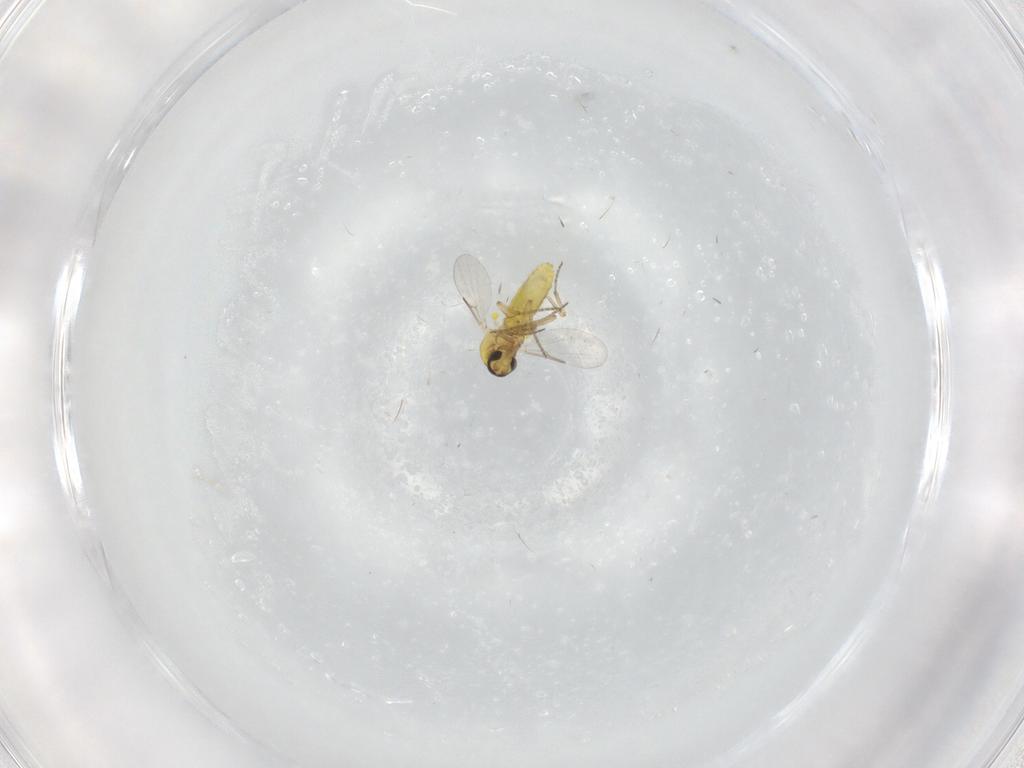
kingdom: Animalia
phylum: Arthropoda
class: Insecta
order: Diptera
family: Ceratopogonidae
